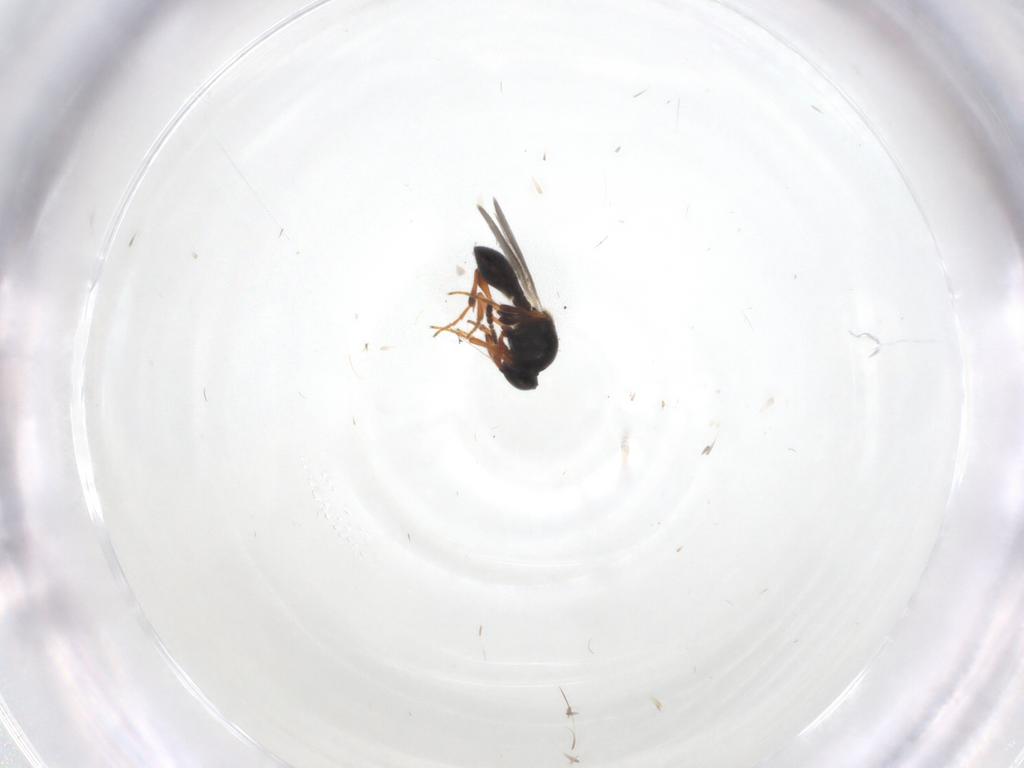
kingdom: Animalia
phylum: Arthropoda
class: Insecta
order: Hymenoptera
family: Platygastridae
